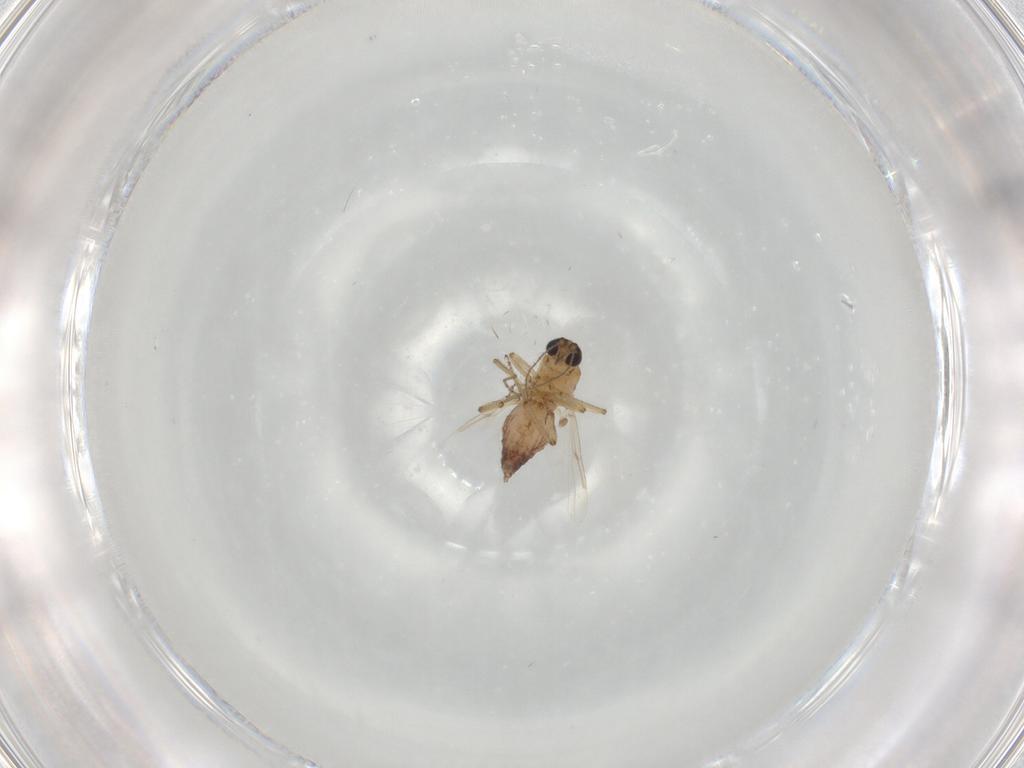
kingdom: Animalia
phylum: Arthropoda
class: Insecta
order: Diptera
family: Ceratopogonidae
